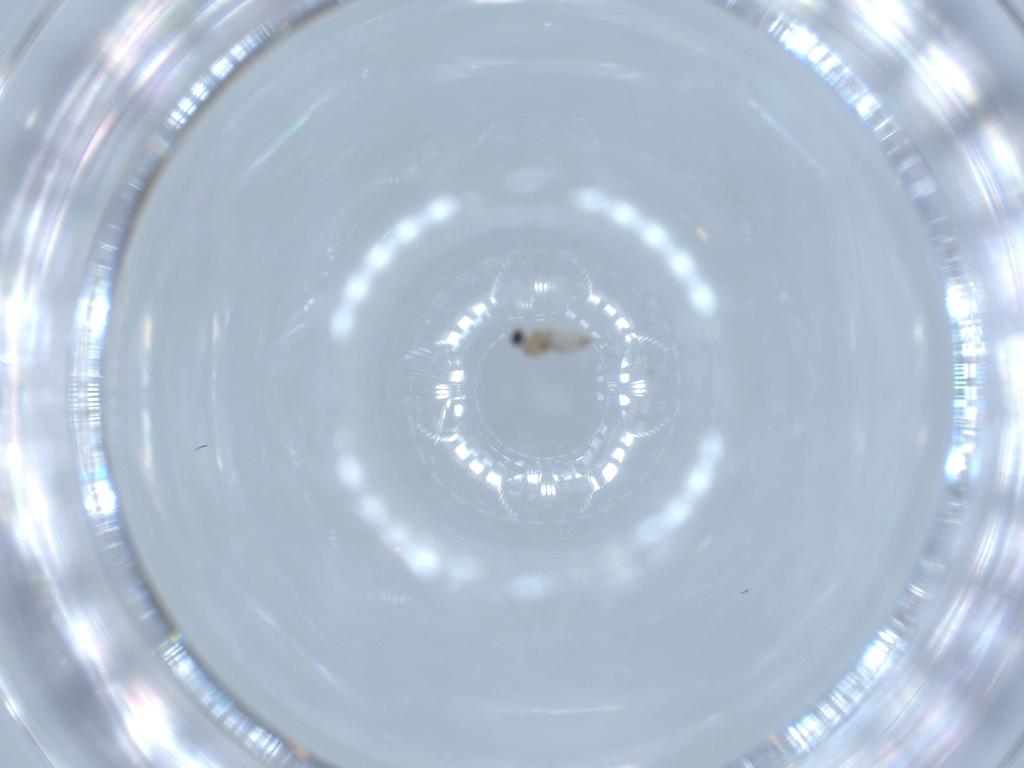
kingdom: Animalia
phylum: Arthropoda
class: Insecta
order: Diptera
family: Cecidomyiidae
